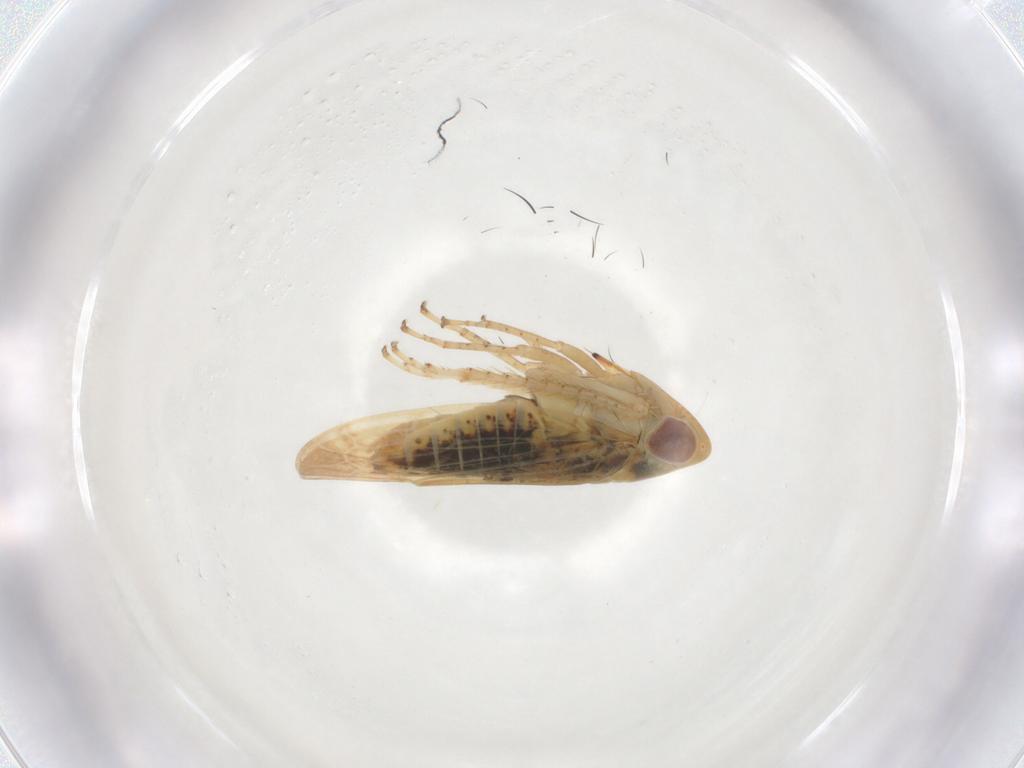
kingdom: Animalia
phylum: Arthropoda
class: Insecta
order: Hemiptera
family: Cicadellidae
